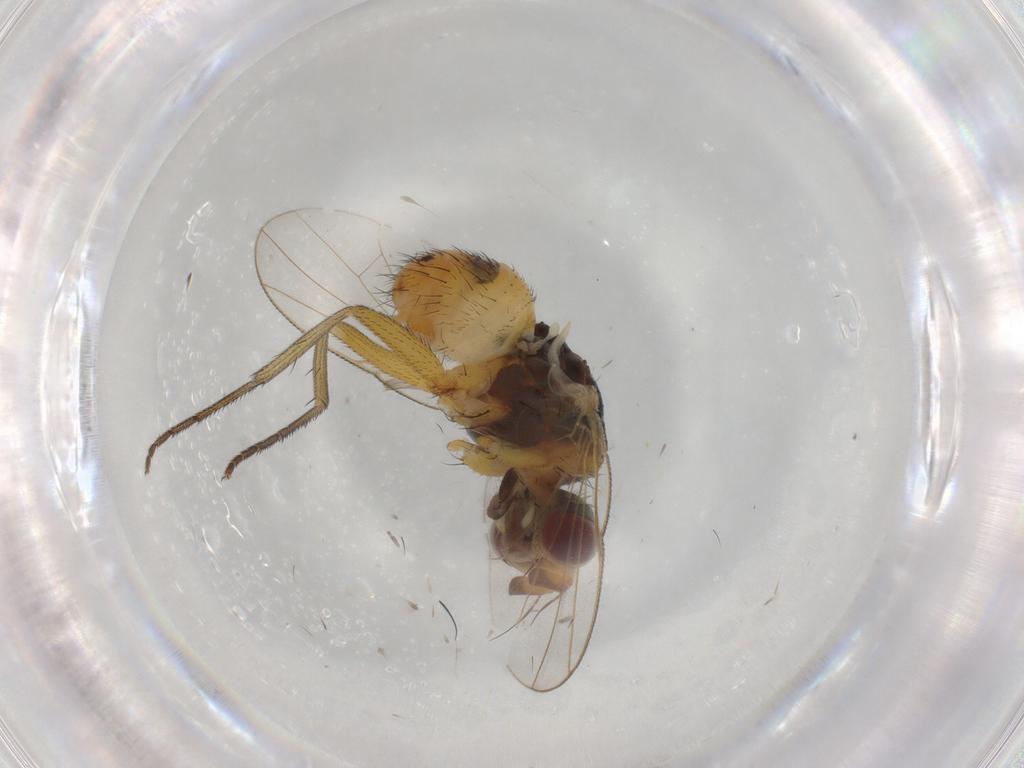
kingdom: Animalia
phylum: Arthropoda
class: Insecta
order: Diptera
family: Muscidae
